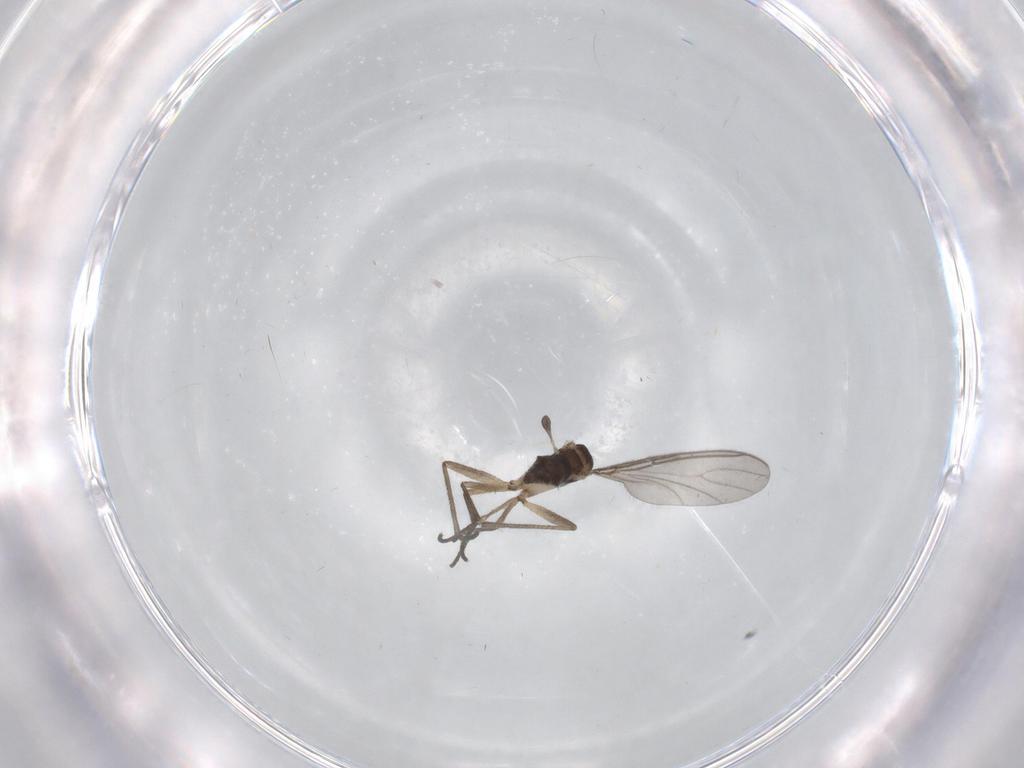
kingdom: Animalia
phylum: Arthropoda
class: Insecta
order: Diptera
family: Sciaridae
